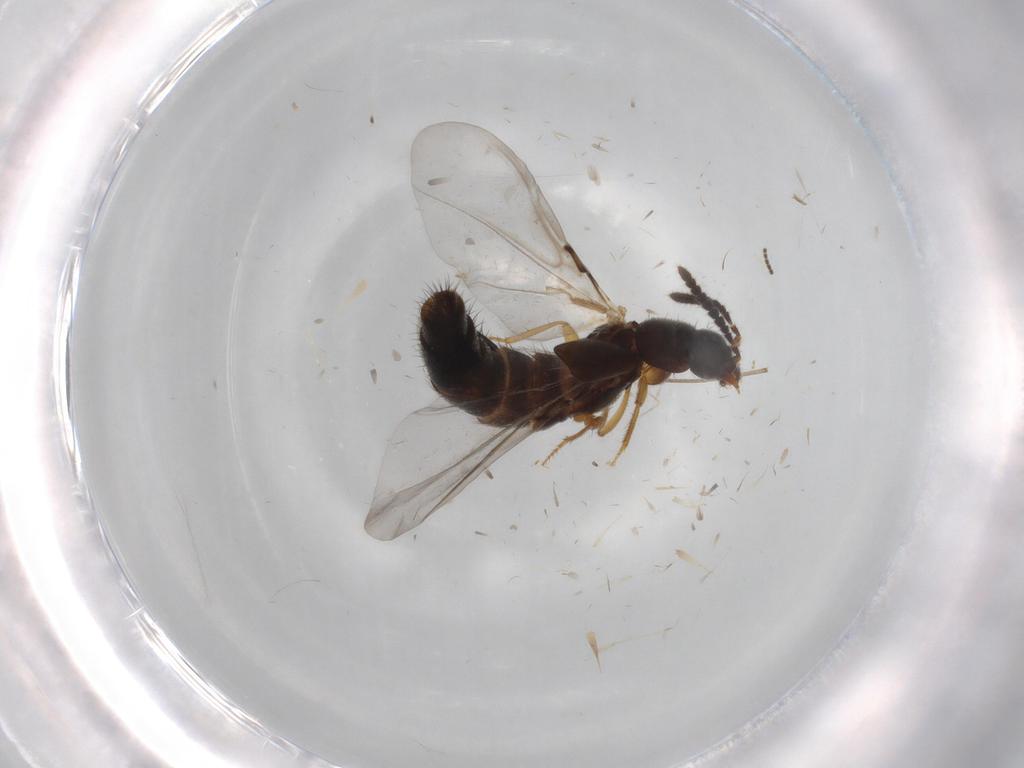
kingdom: Animalia
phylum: Arthropoda
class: Insecta
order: Coleoptera
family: Staphylinidae
